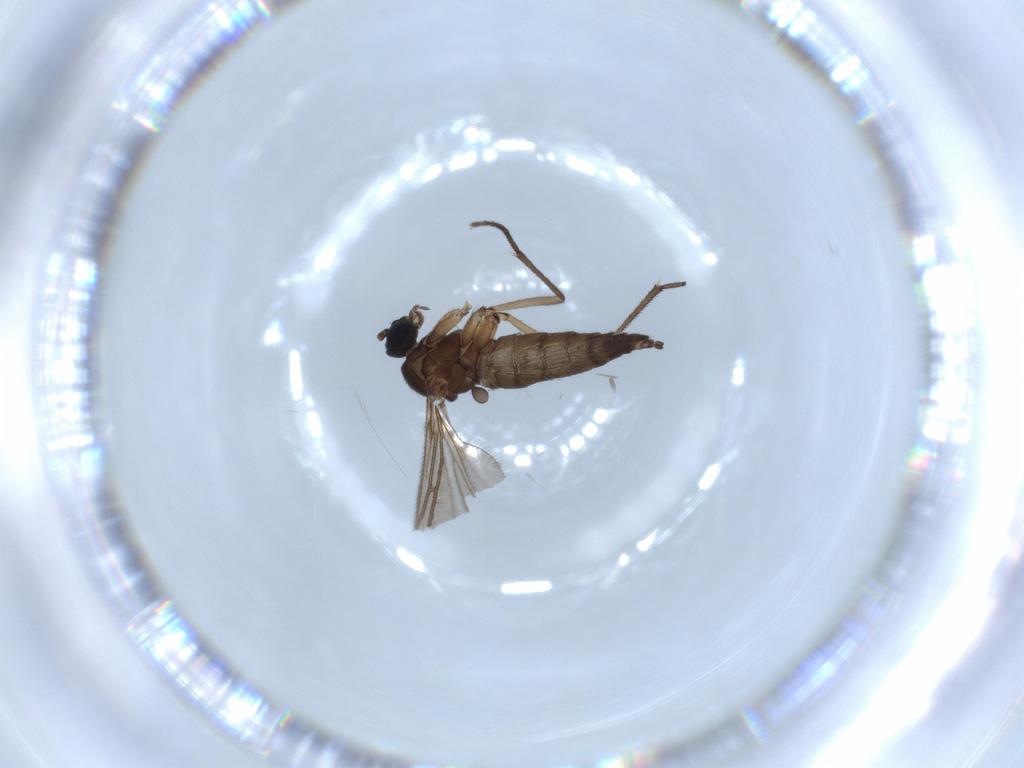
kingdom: Animalia
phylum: Arthropoda
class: Insecta
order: Diptera
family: Sciaridae
